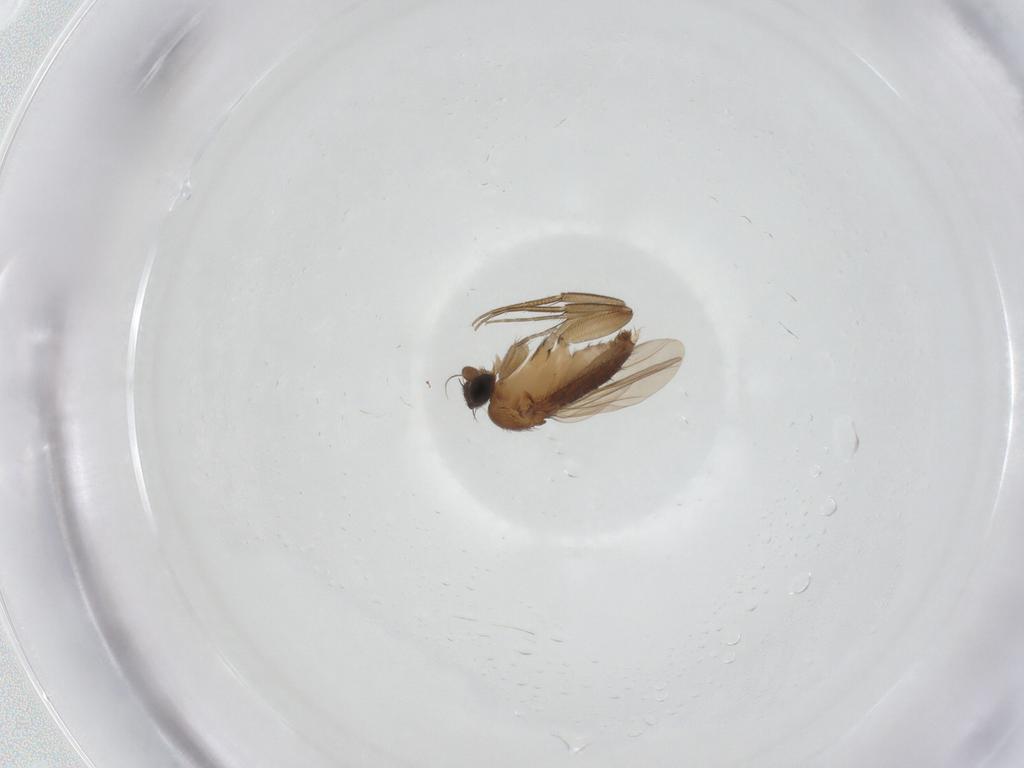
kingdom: Animalia
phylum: Arthropoda
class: Insecta
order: Diptera
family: Phoridae
